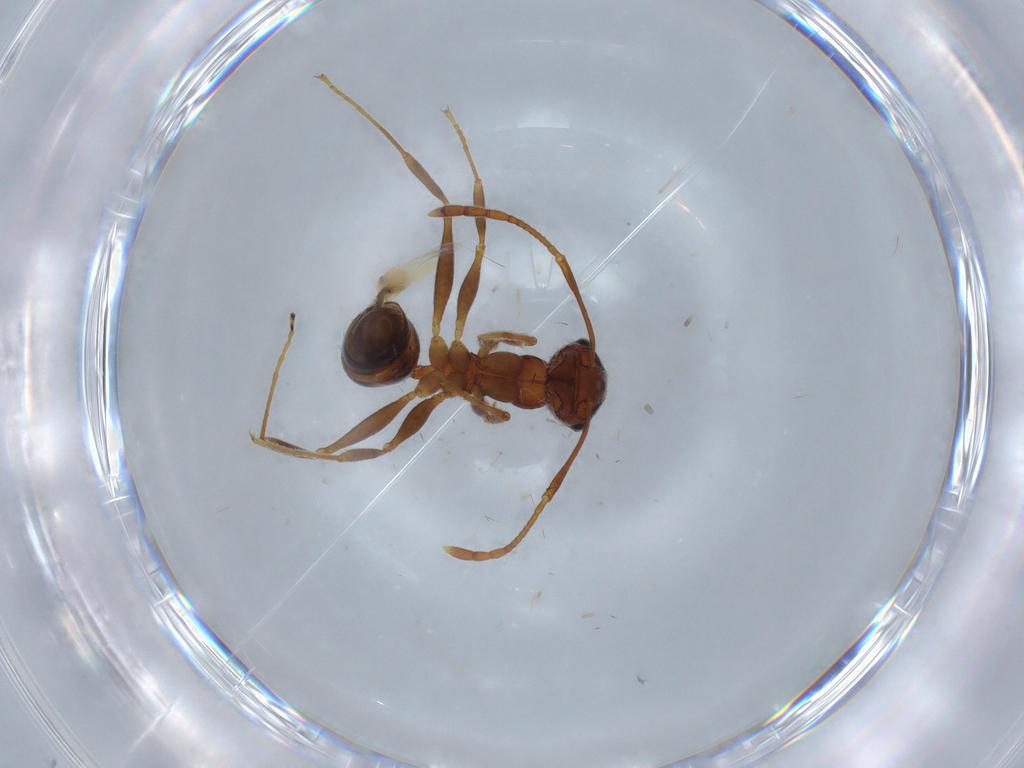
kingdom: Animalia
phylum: Arthropoda
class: Insecta
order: Hymenoptera
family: Formicidae
